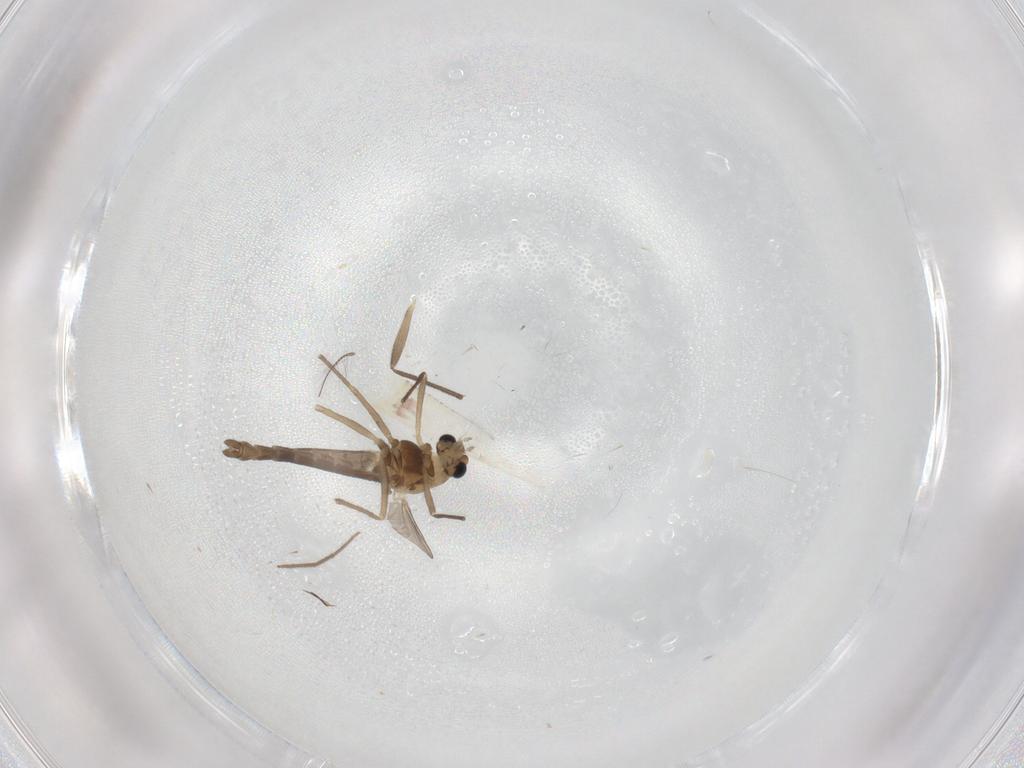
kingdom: Animalia
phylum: Arthropoda
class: Insecta
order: Diptera
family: Chironomidae
